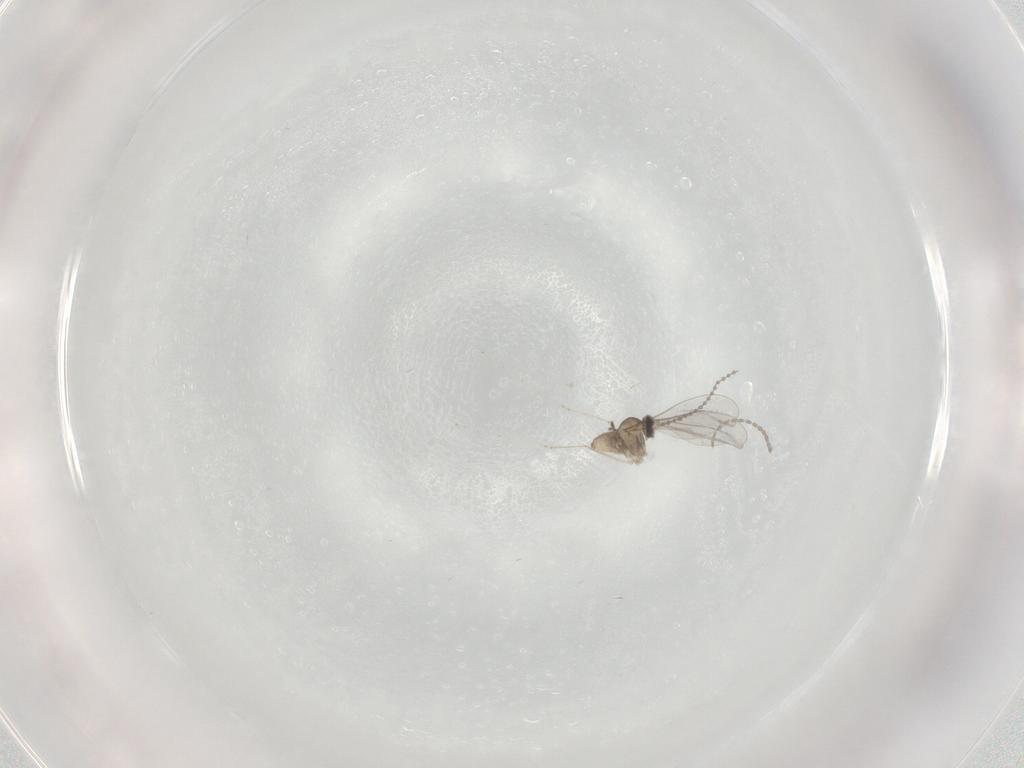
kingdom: Animalia
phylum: Arthropoda
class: Insecta
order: Diptera
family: Cecidomyiidae
